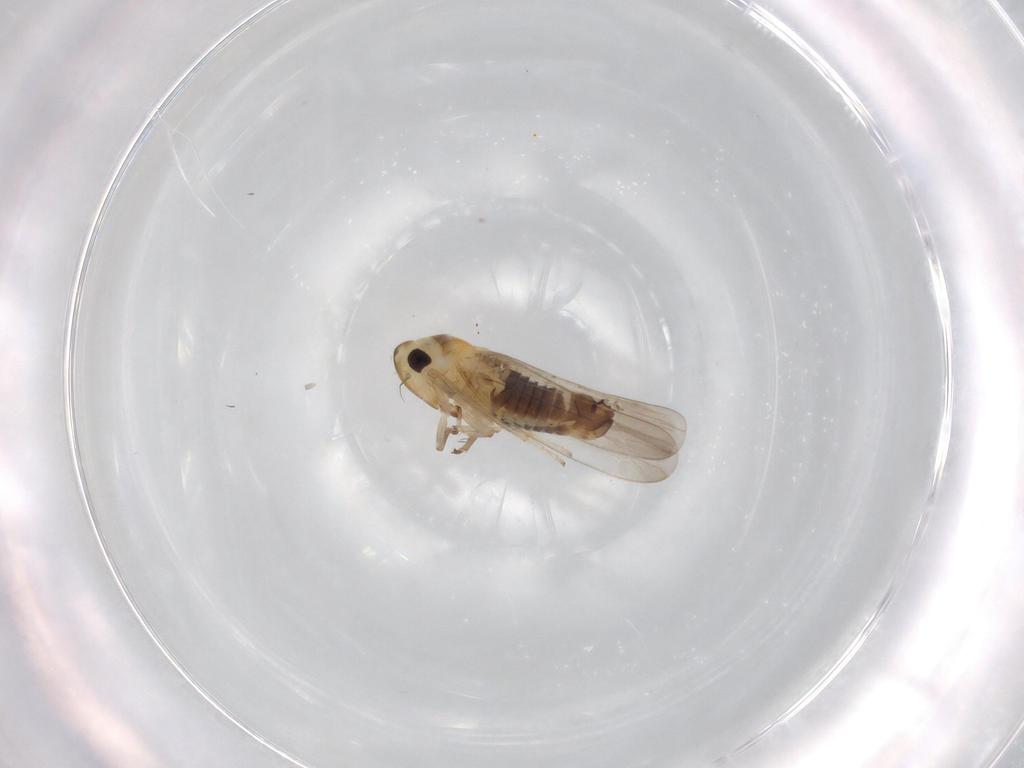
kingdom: Animalia
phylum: Arthropoda
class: Insecta
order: Hemiptera
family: Cicadellidae
